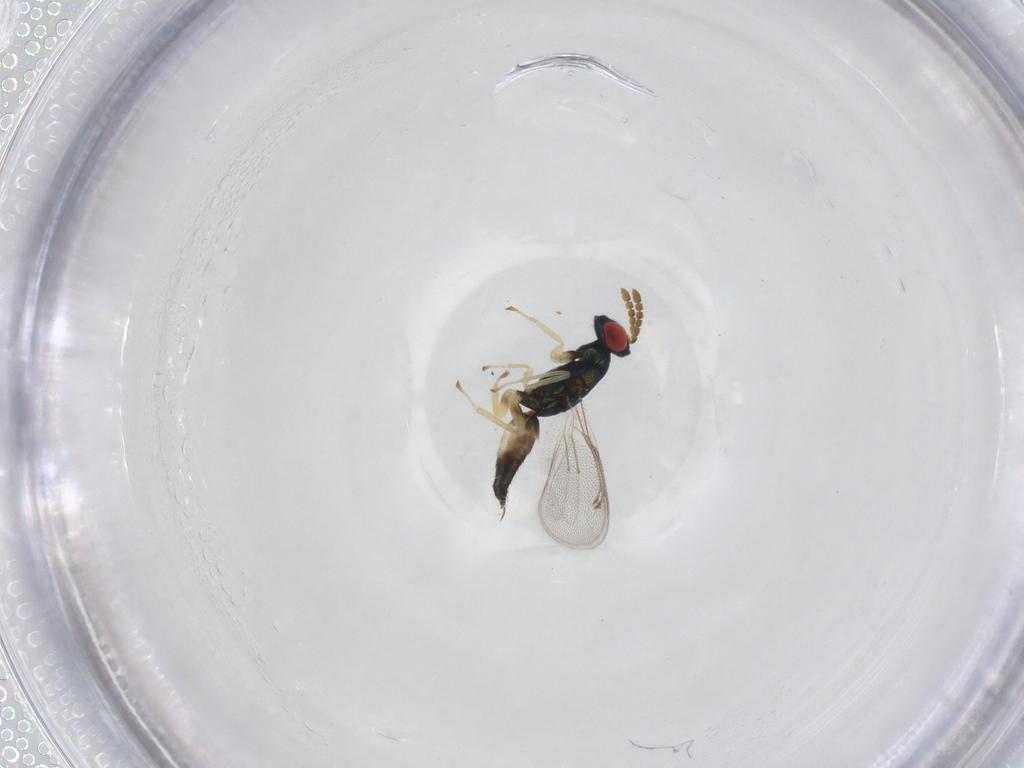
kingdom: Animalia
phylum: Arthropoda
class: Insecta
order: Hymenoptera
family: Eulophidae
